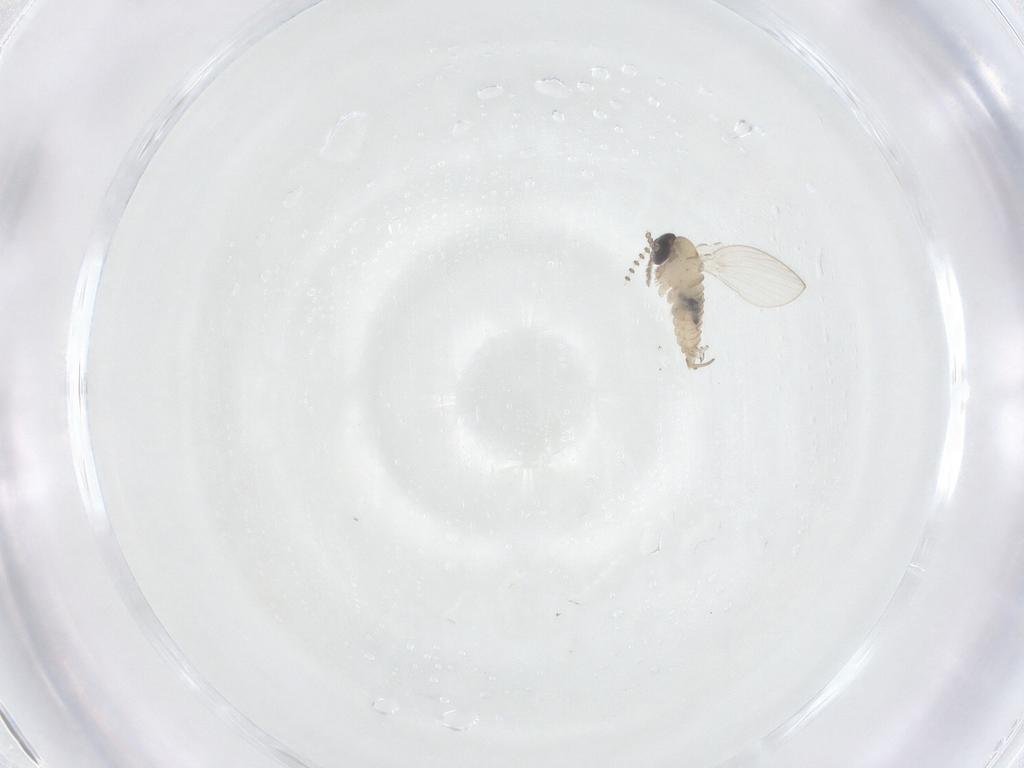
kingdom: Animalia
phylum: Arthropoda
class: Insecta
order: Diptera
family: Psychodidae
